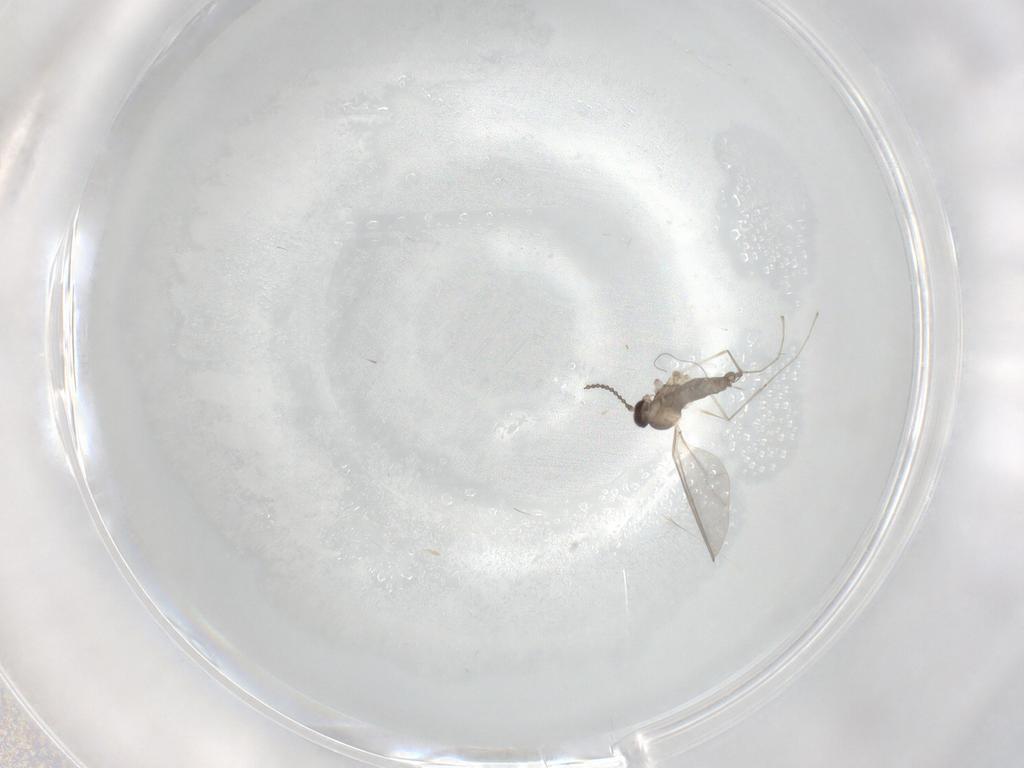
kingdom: Animalia
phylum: Arthropoda
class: Insecta
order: Diptera
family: Cecidomyiidae
